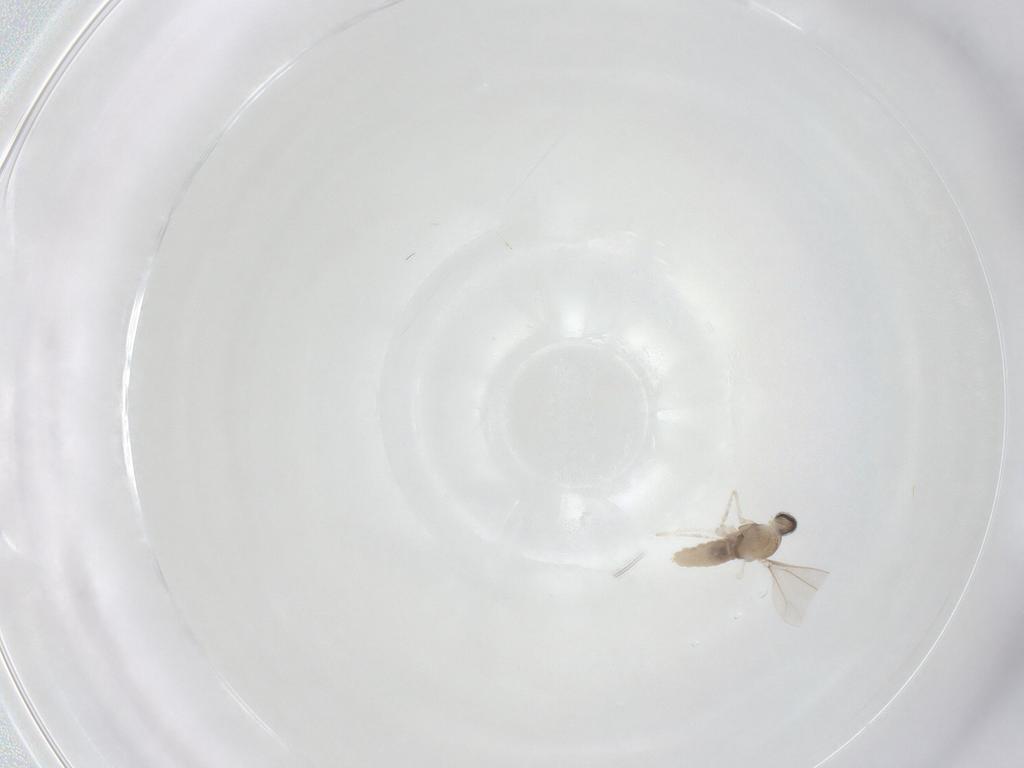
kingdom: Animalia
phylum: Arthropoda
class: Insecta
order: Diptera
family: Cecidomyiidae
